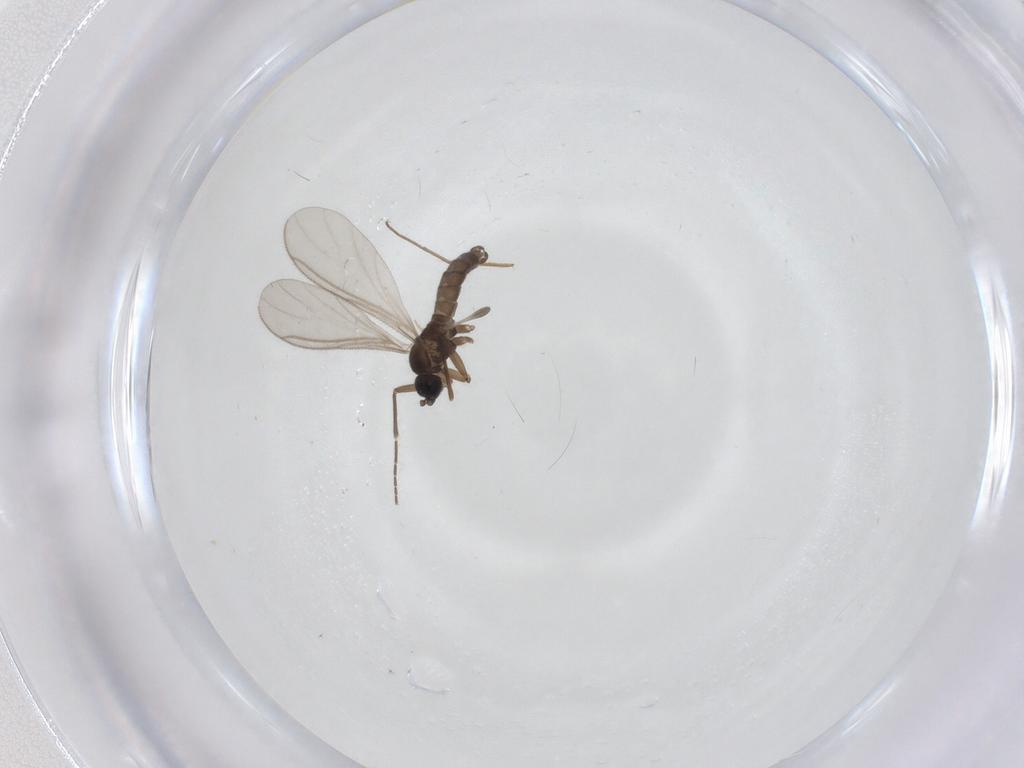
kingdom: Animalia
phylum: Arthropoda
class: Insecta
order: Diptera
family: Sciaridae
